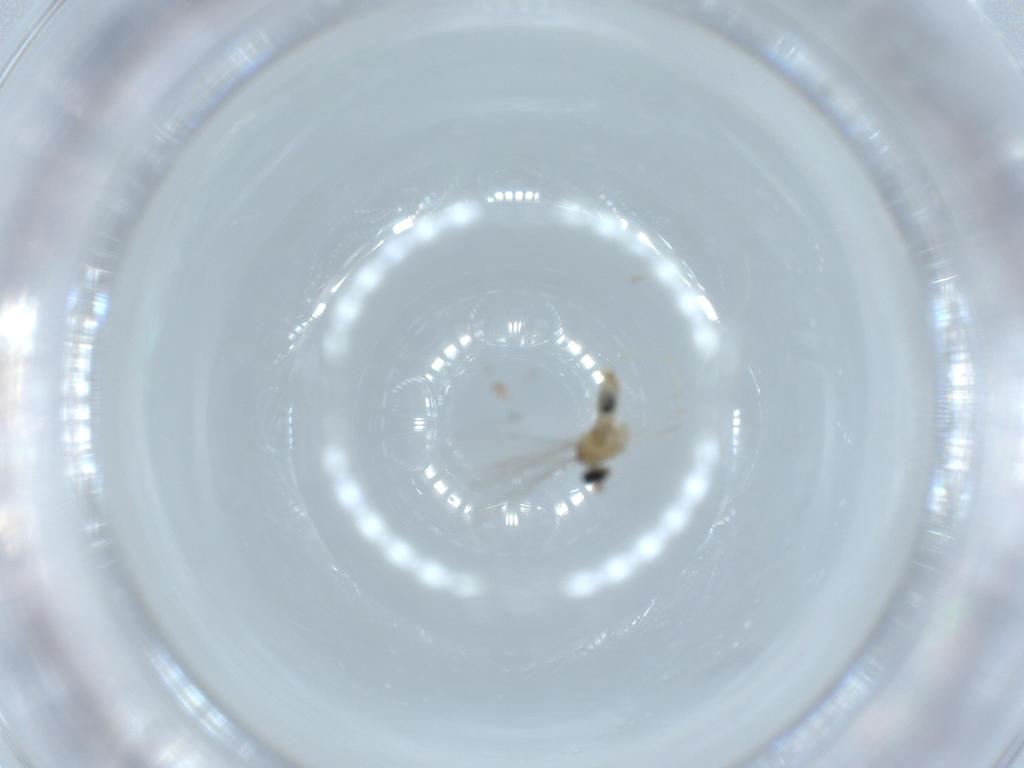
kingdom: Animalia
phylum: Arthropoda
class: Insecta
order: Diptera
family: Cecidomyiidae
